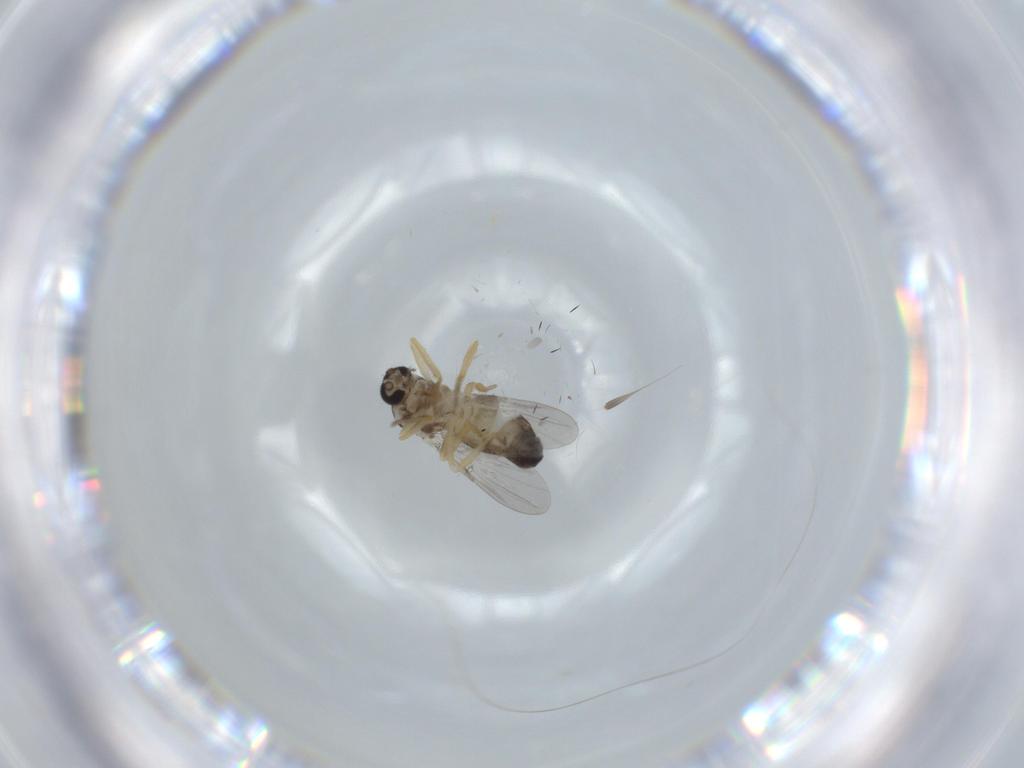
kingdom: Animalia
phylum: Arthropoda
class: Insecta
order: Diptera
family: Ceratopogonidae
